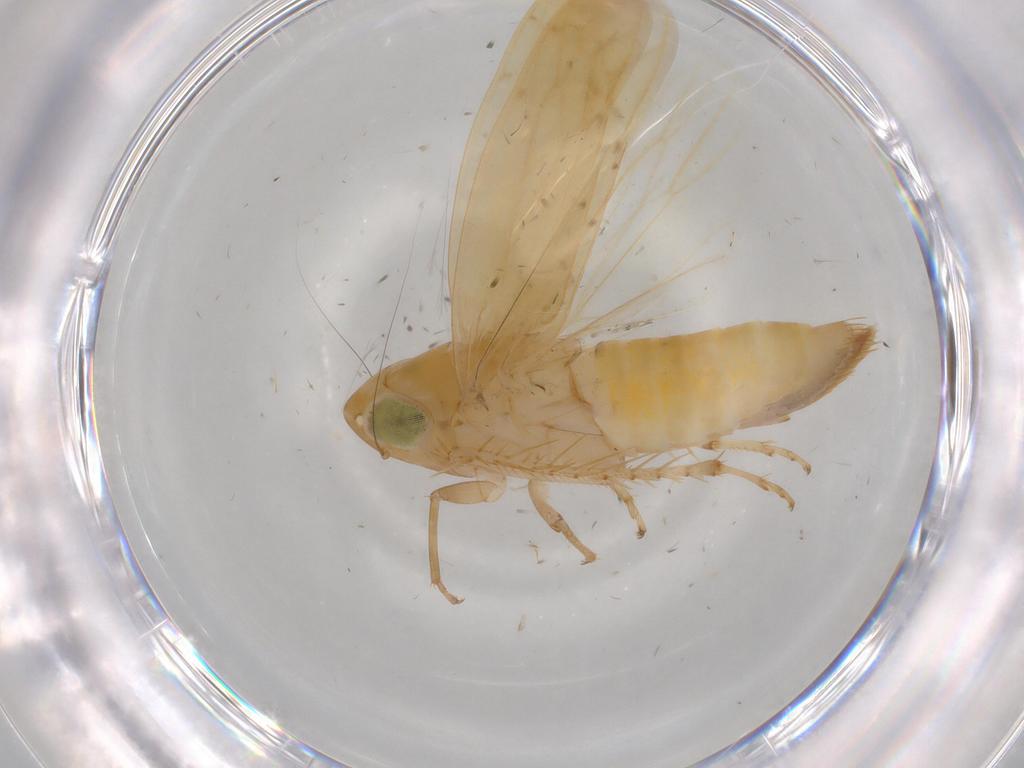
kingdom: Animalia
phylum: Arthropoda
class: Insecta
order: Hemiptera
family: Cicadellidae
